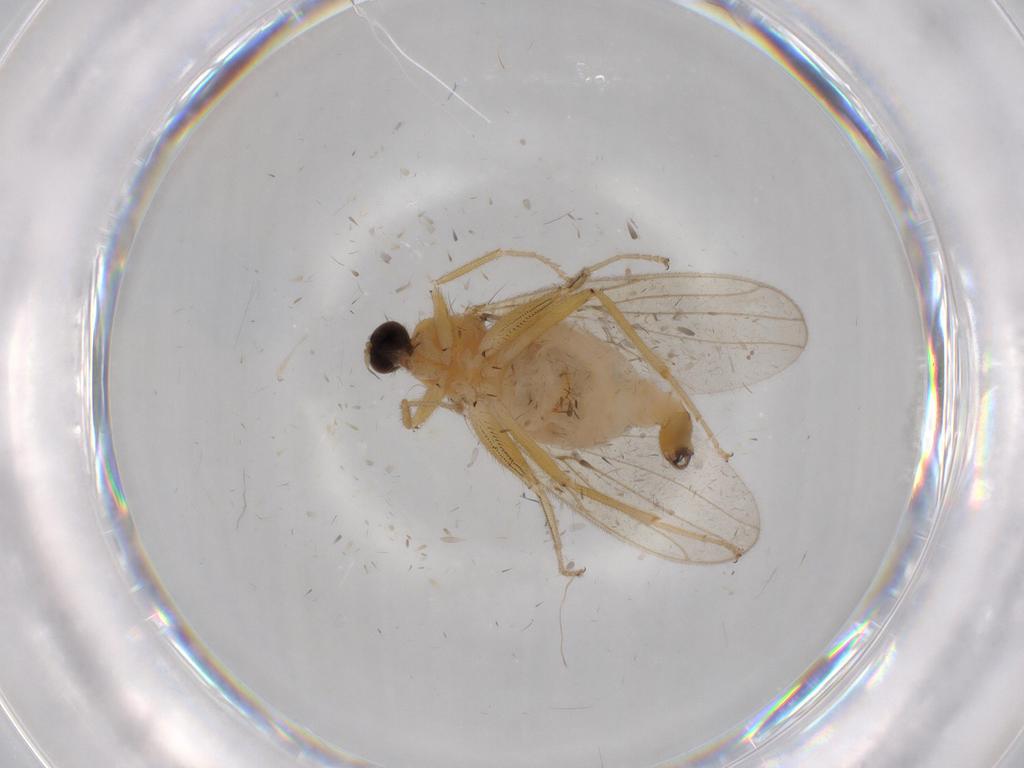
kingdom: Animalia
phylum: Arthropoda
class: Insecta
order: Diptera
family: Hybotidae
